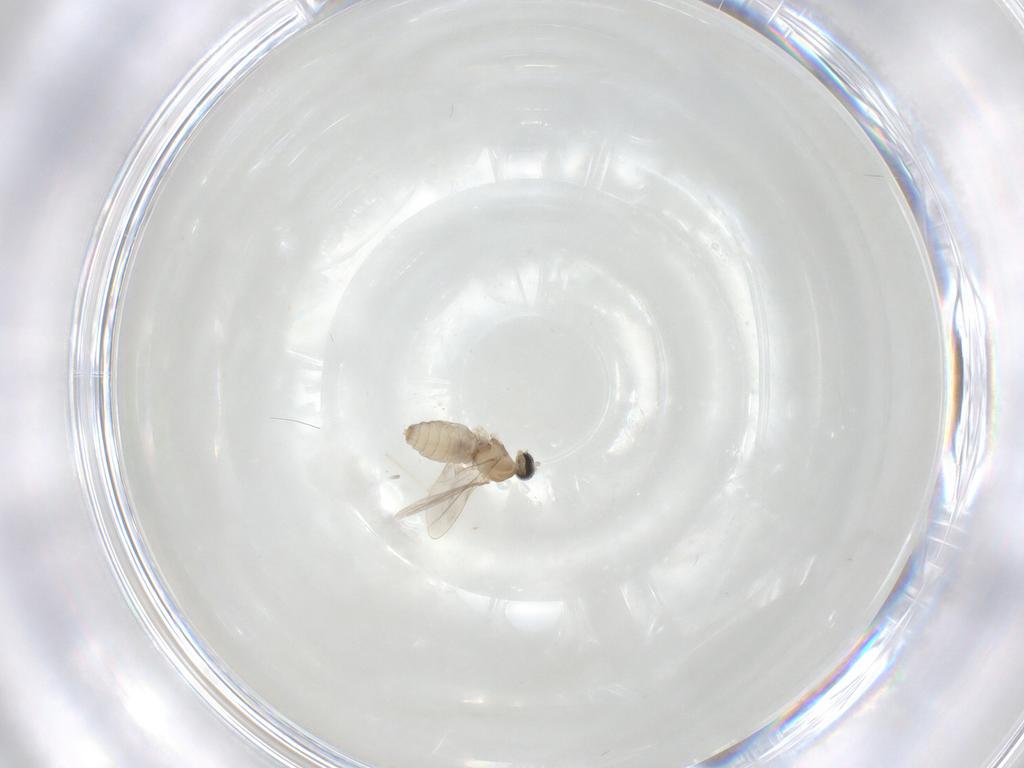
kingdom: Animalia
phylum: Arthropoda
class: Insecta
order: Diptera
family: Cecidomyiidae
